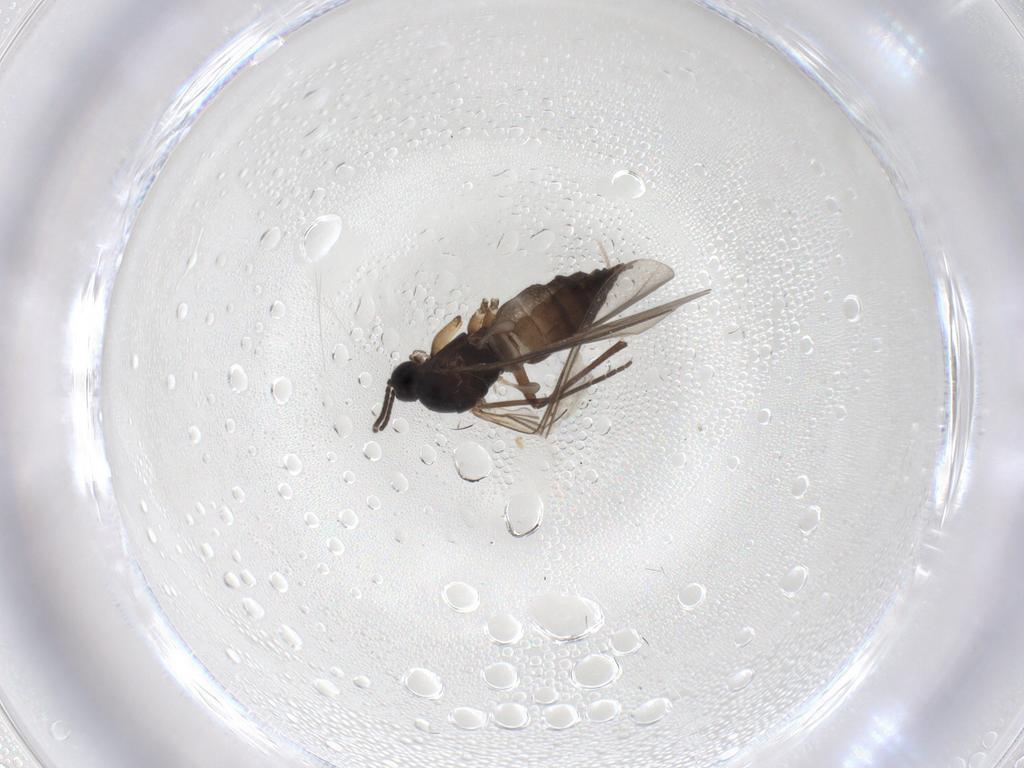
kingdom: Animalia
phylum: Arthropoda
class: Insecta
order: Diptera
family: Sciaridae
